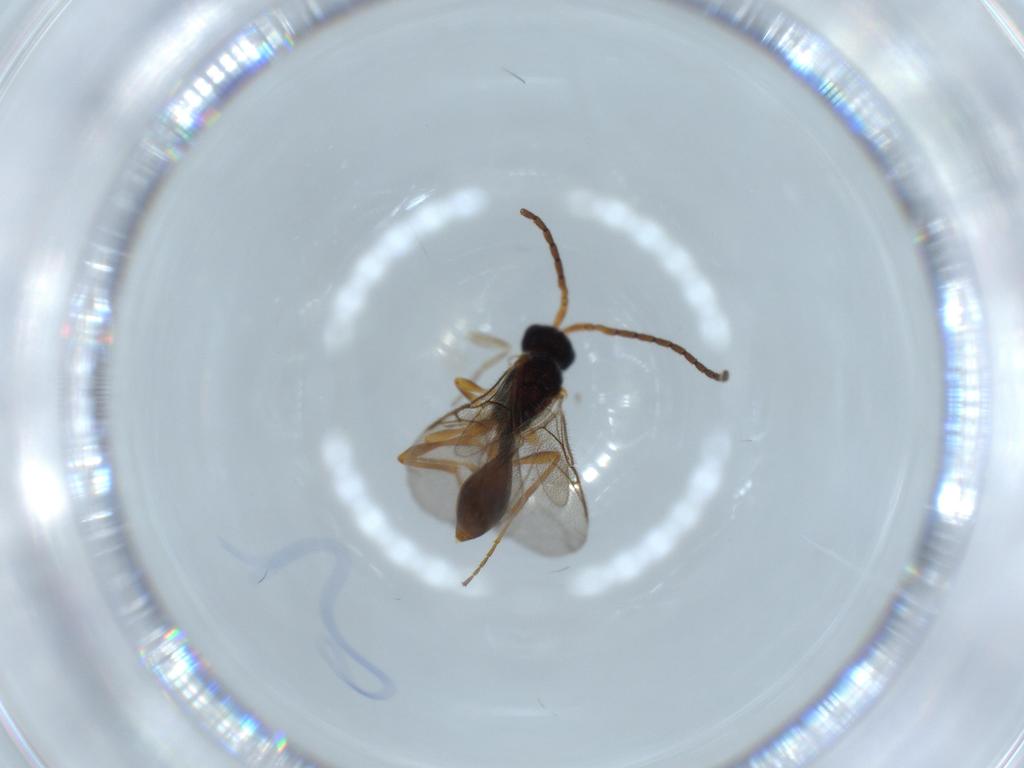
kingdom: Animalia
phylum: Arthropoda
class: Insecta
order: Hymenoptera
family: Diapriidae
